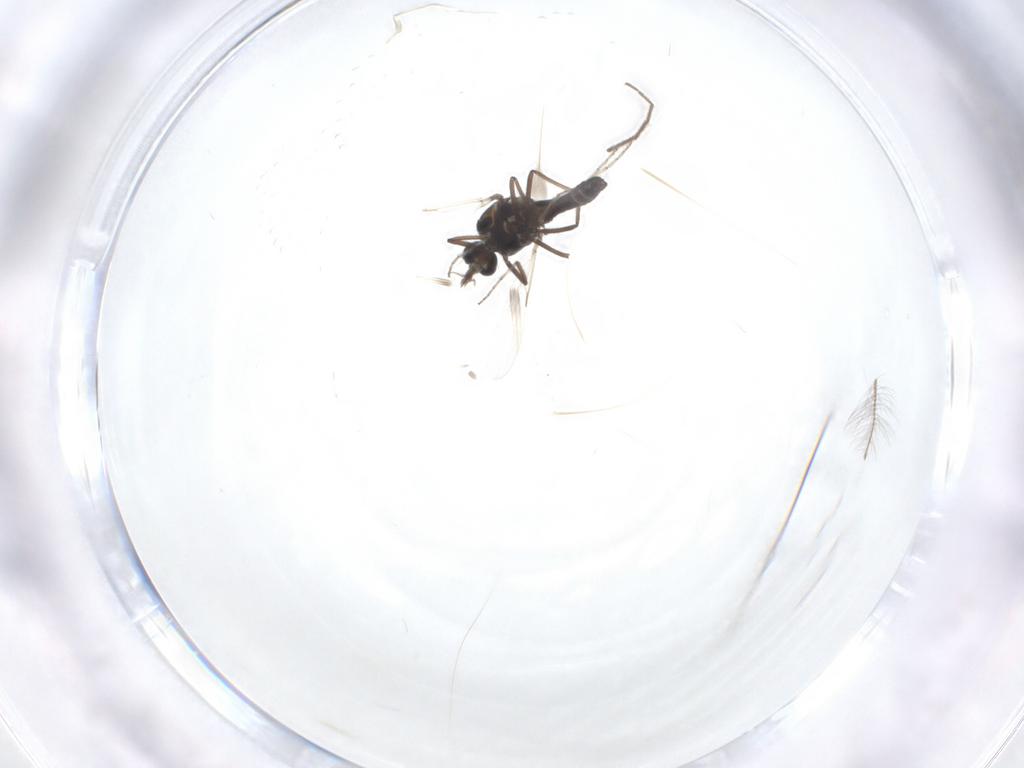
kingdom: Animalia
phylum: Arthropoda
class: Insecta
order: Diptera
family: Ceratopogonidae
